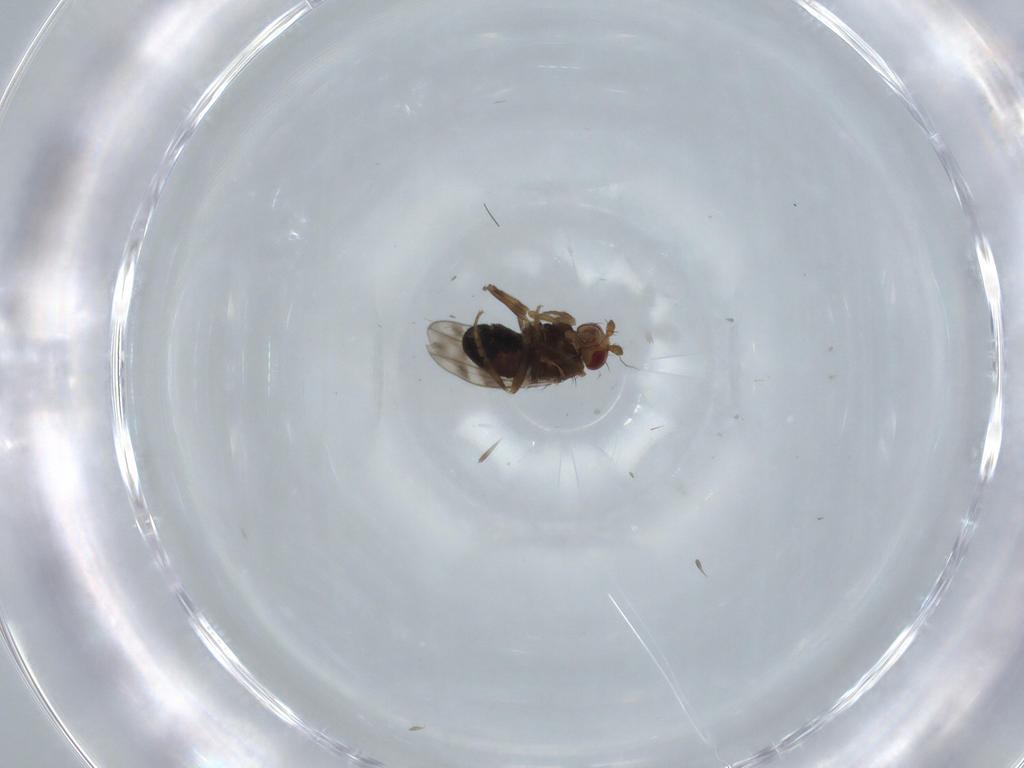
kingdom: Animalia
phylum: Arthropoda
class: Insecta
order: Diptera
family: Sphaeroceridae
